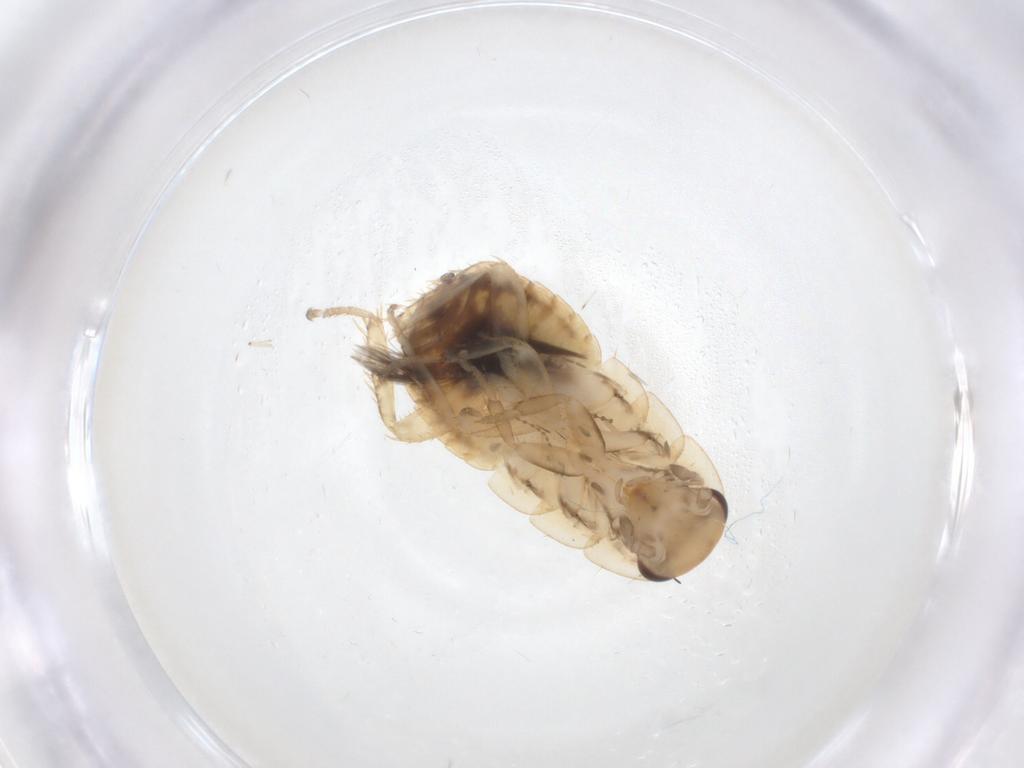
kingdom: Animalia
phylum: Arthropoda
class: Insecta
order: Blattodea
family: Ectobiidae
